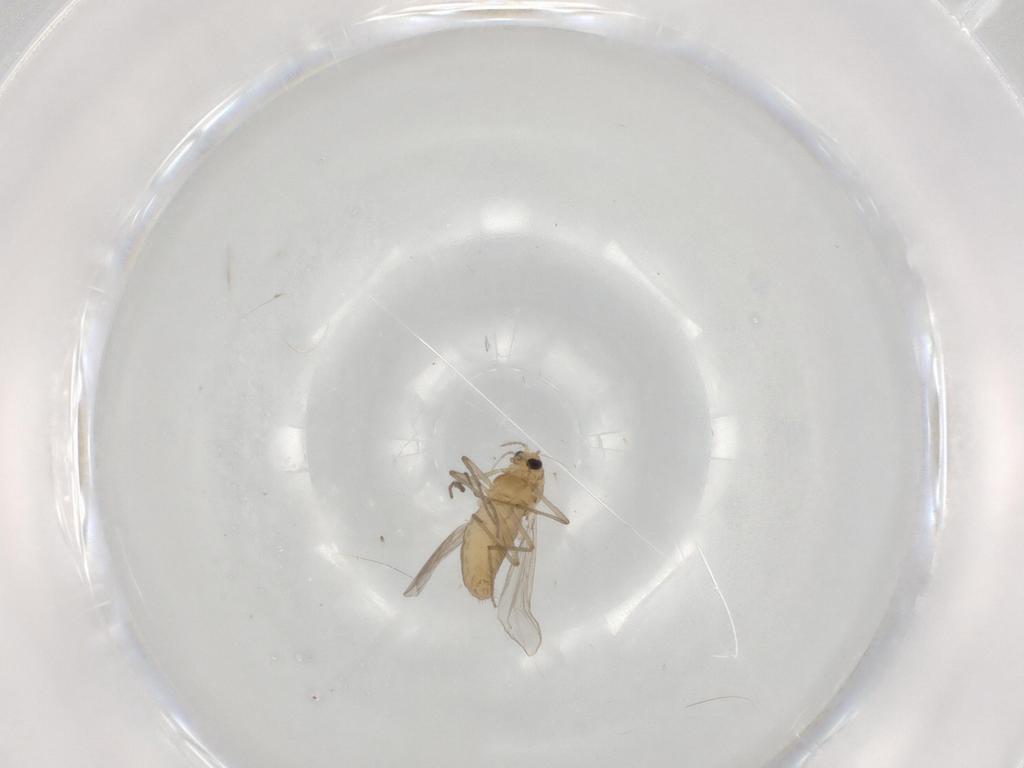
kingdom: Animalia
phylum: Arthropoda
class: Insecta
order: Diptera
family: Chironomidae
